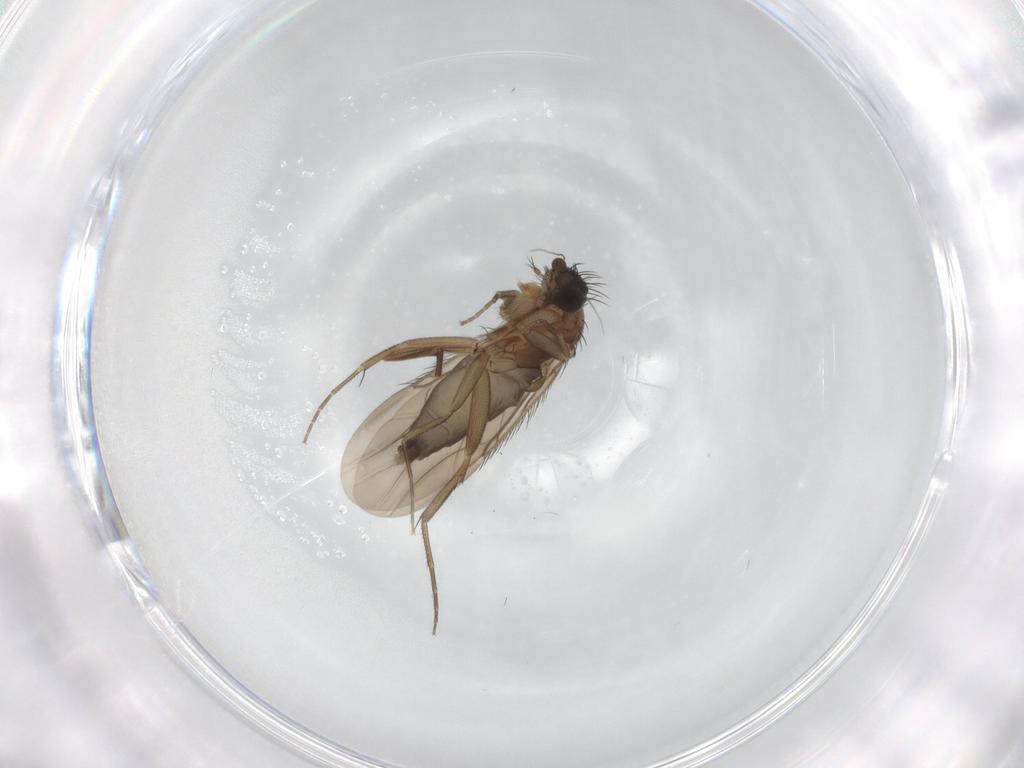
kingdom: Animalia
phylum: Arthropoda
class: Insecta
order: Diptera
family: Phoridae
